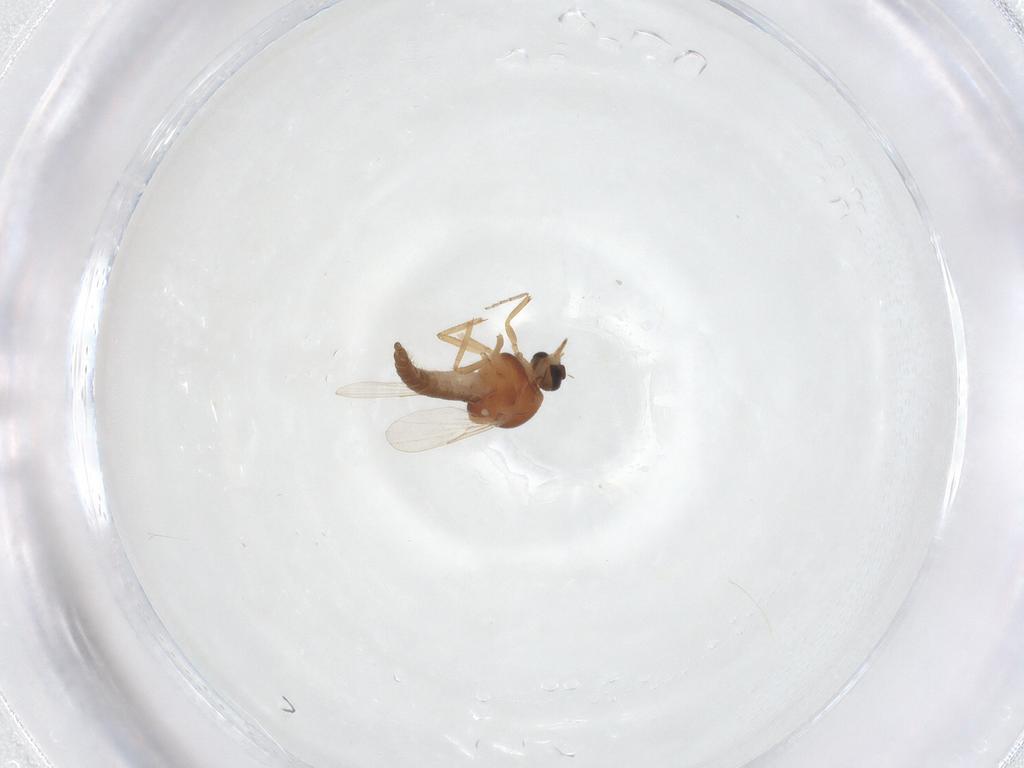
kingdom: Animalia
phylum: Arthropoda
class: Insecta
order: Diptera
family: Ceratopogonidae
